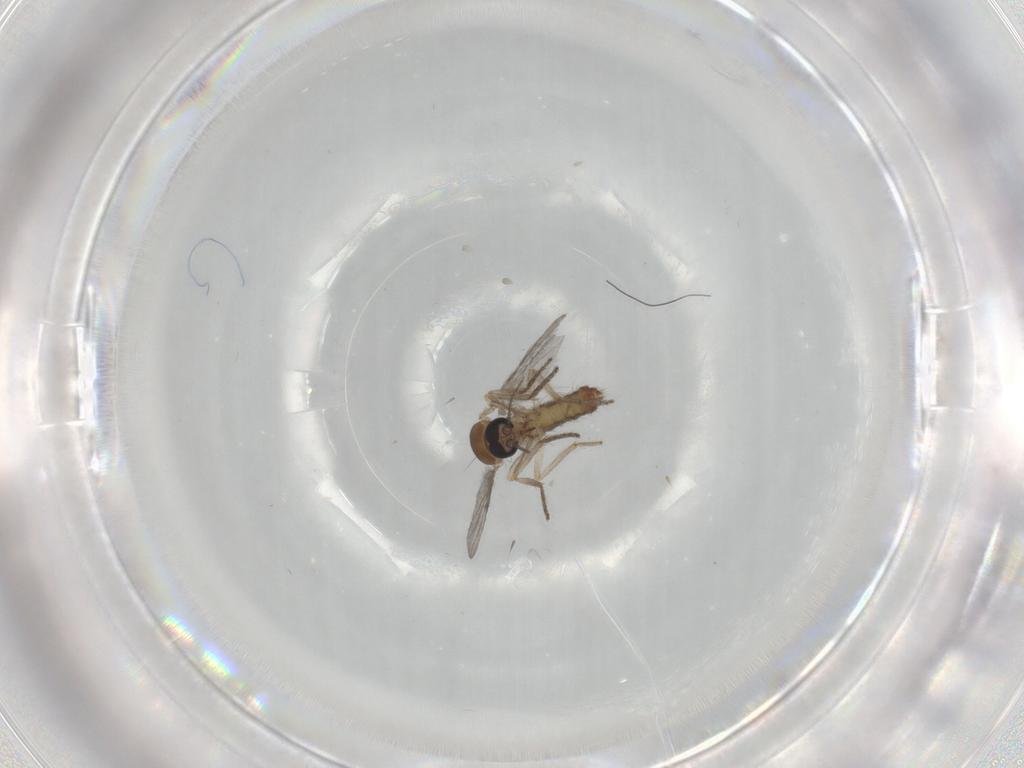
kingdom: Animalia
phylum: Arthropoda
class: Insecta
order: Diptera
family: Ceratopogonidae
